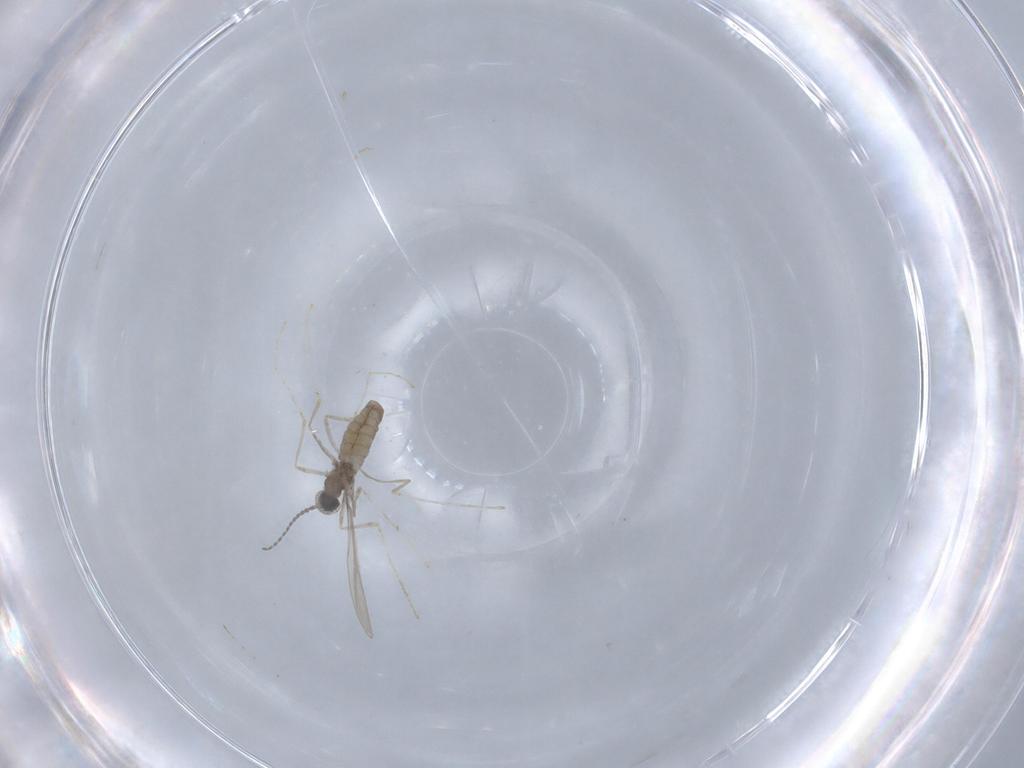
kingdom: Animalia
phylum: Arthropoda
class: Insecta
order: Diptera
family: Cecidomyiidae
